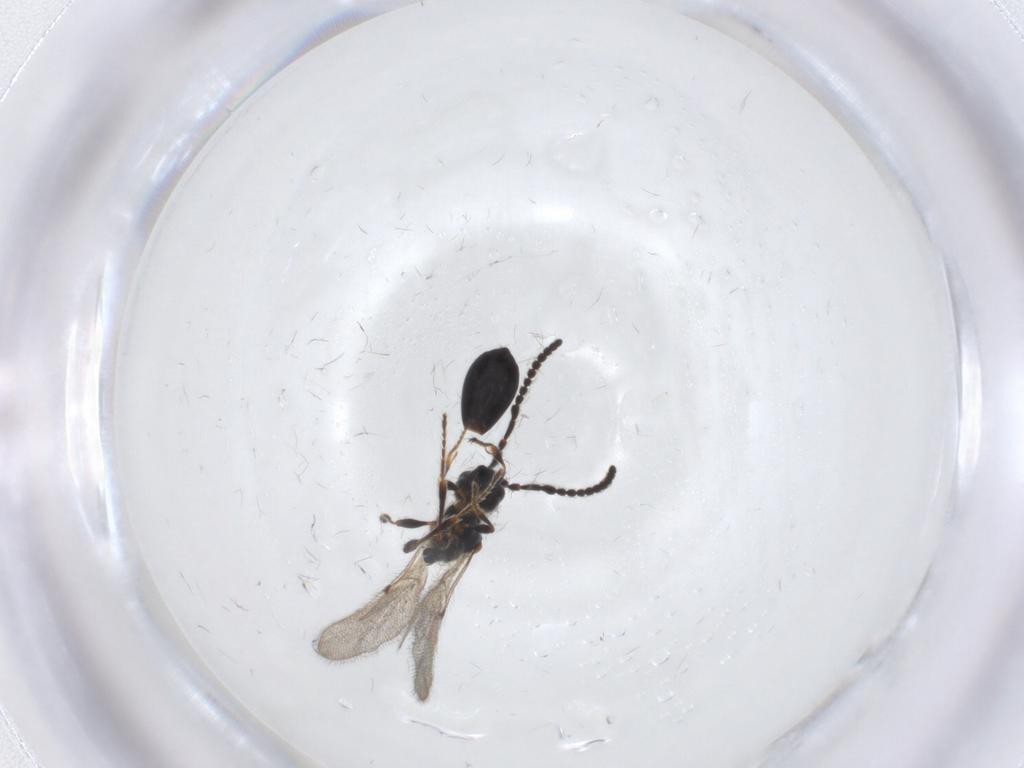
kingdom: Animalia
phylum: Arthropoda
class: Insecta
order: Hymenoptera
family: Diapriidae
